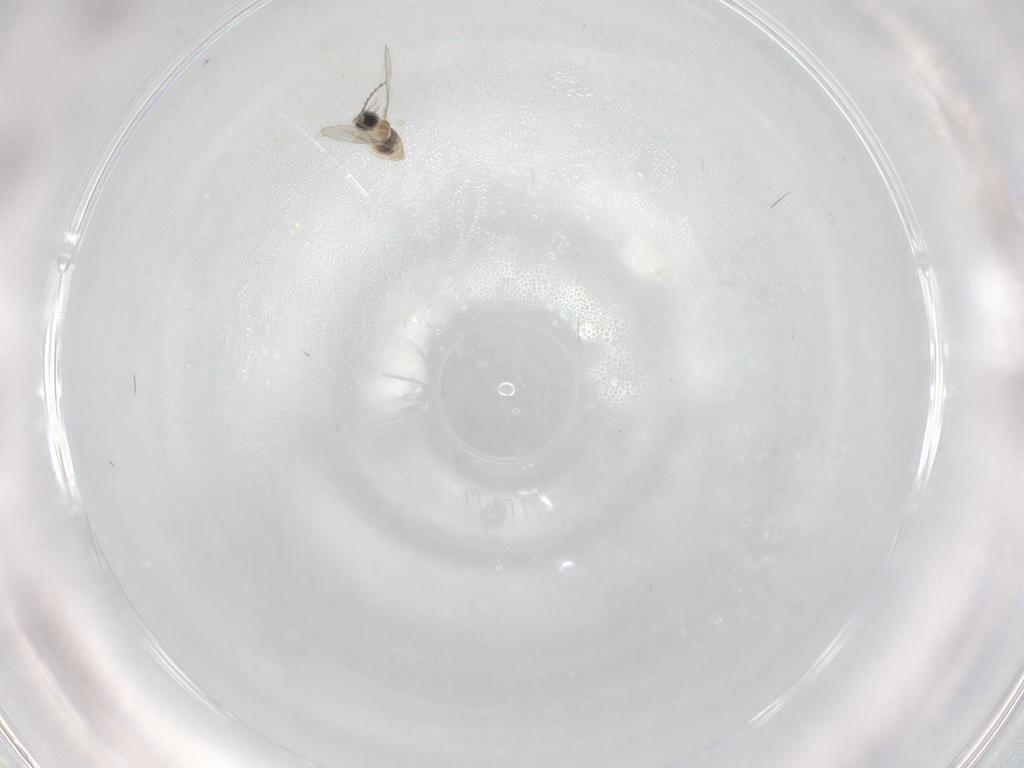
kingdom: Animalia
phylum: Arthropoda
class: Insecta
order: Diptera
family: Cecidomyiidae
